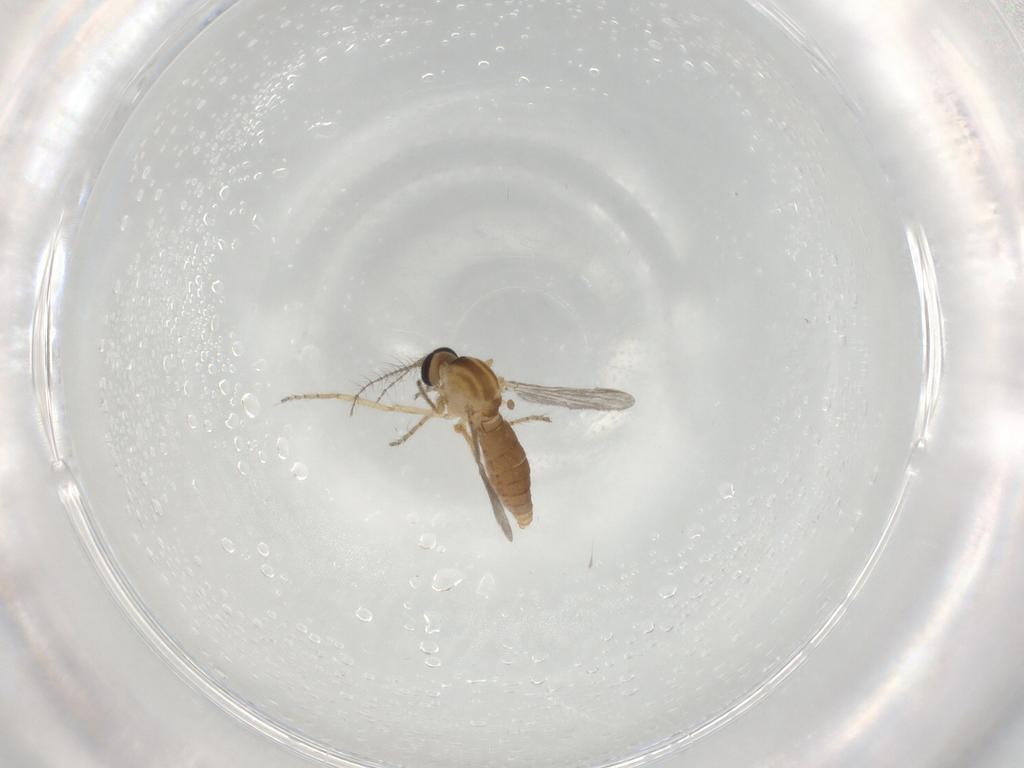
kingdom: Animalia
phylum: Arthropoda
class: Insecta
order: Diptera
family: Ceratopogonidae
